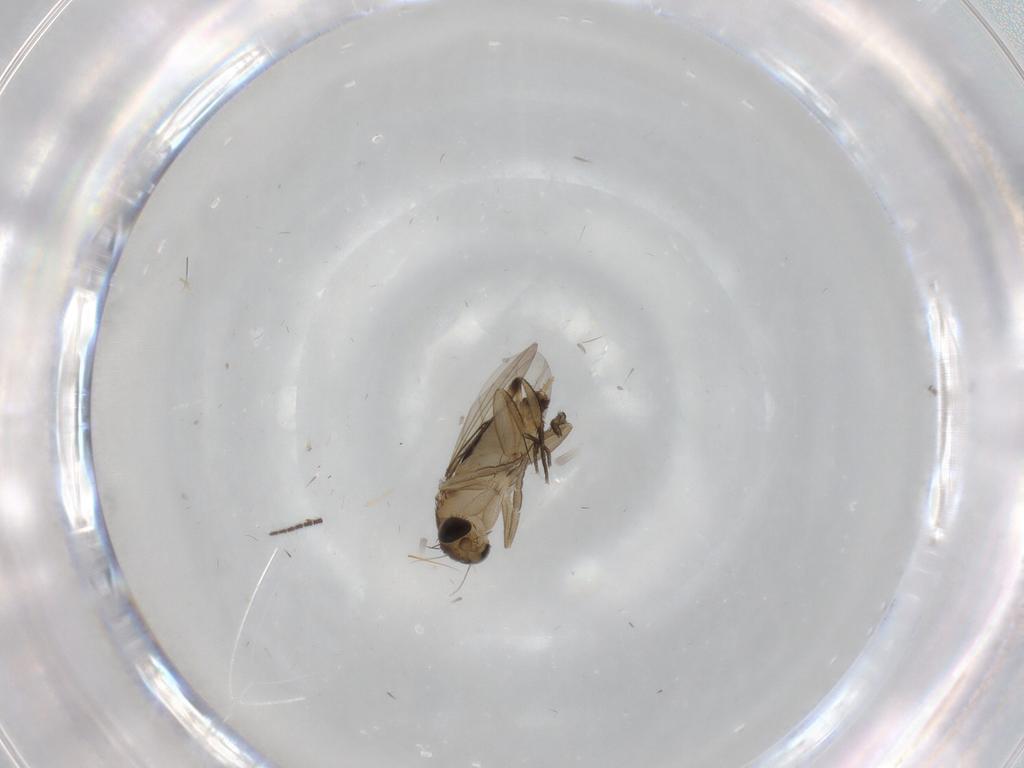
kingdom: Animalia
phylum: Arthropoda
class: Insecta
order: Diptera
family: Mycetophilidae
